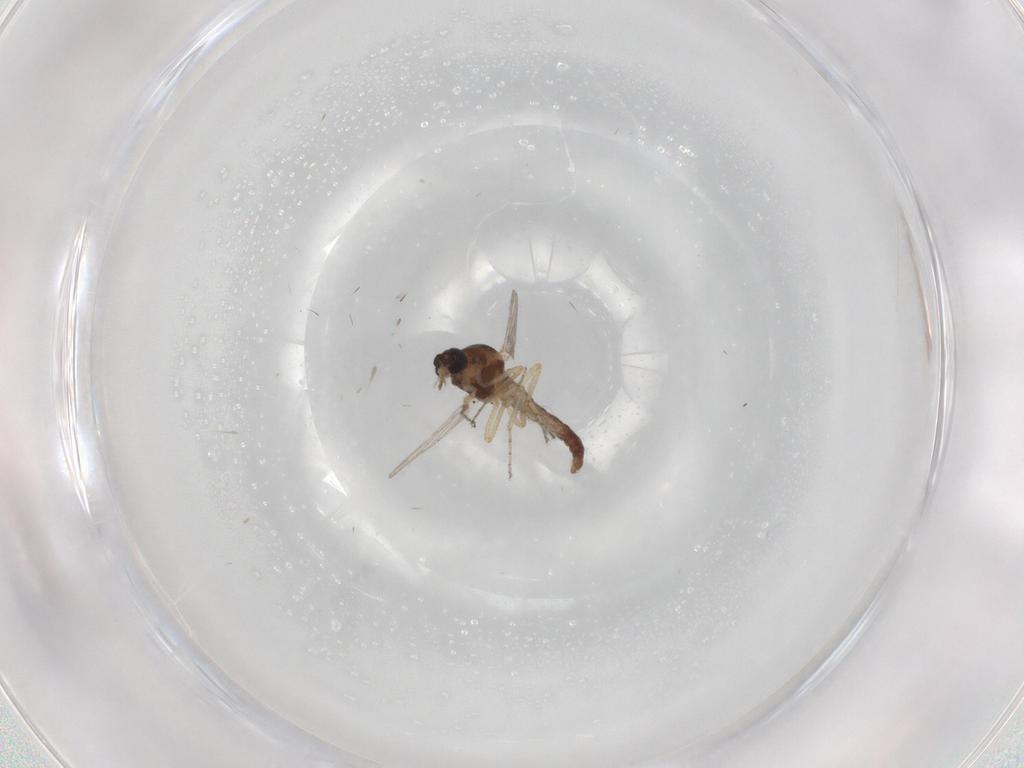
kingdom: Animalia
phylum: Arthropoda
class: Insecta
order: Diptera
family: Ceratopogonidae
